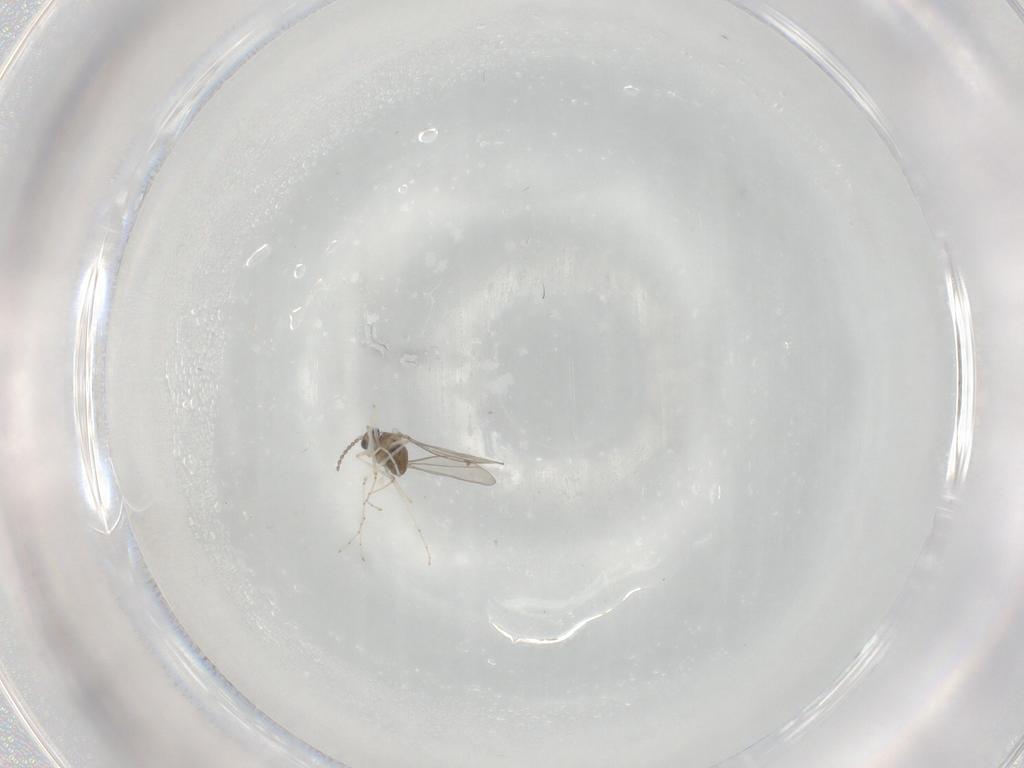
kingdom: Animalia
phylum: Arthropoda
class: Insecta
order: Diptera
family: Chironomidae
